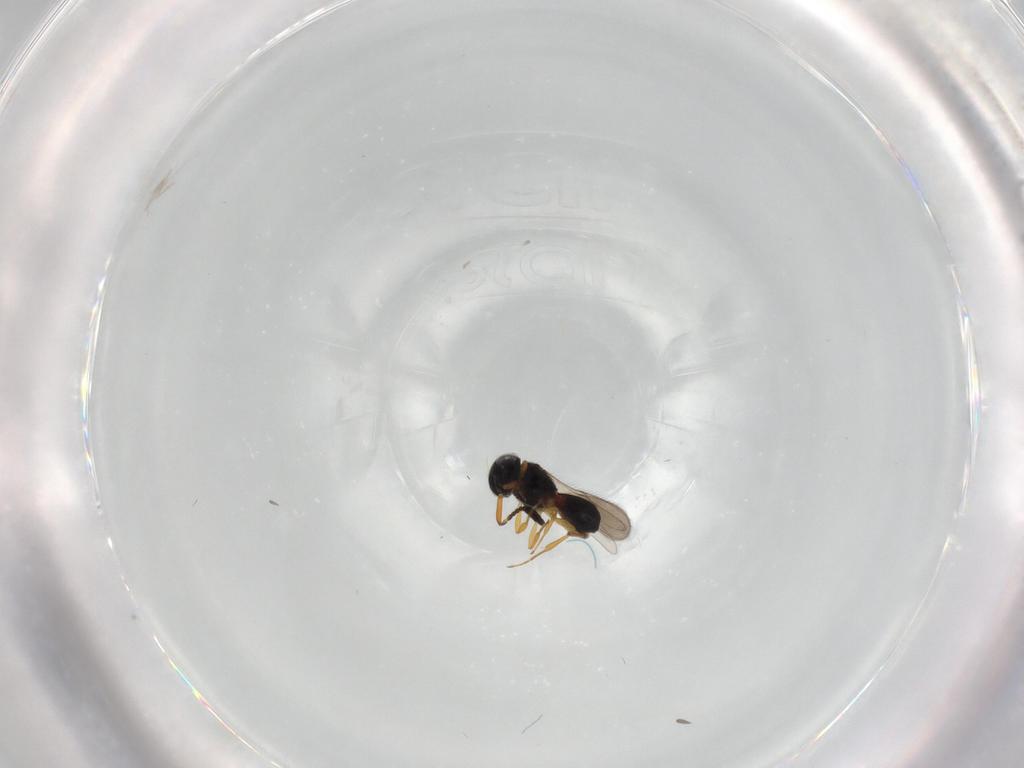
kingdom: Animalia
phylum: Arthropoda
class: Insecta
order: Hymenoptera
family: Scelionidae
